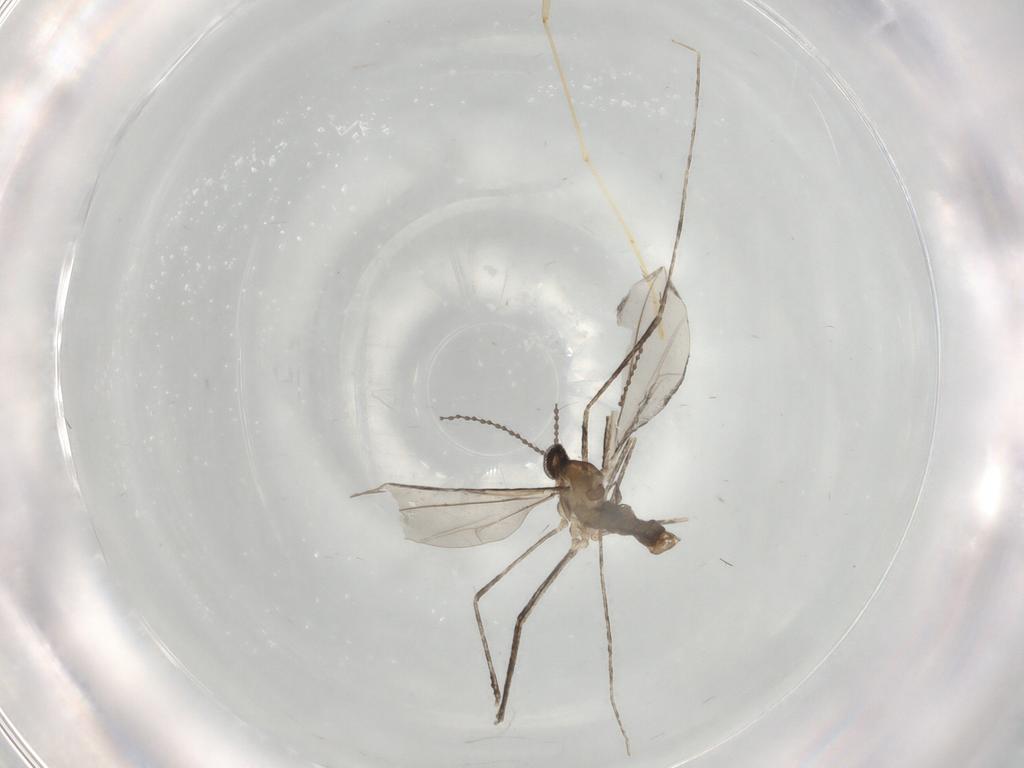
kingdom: Animalia
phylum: Arthropoda
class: Insecta
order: Diptera
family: Cecidomyiidae
